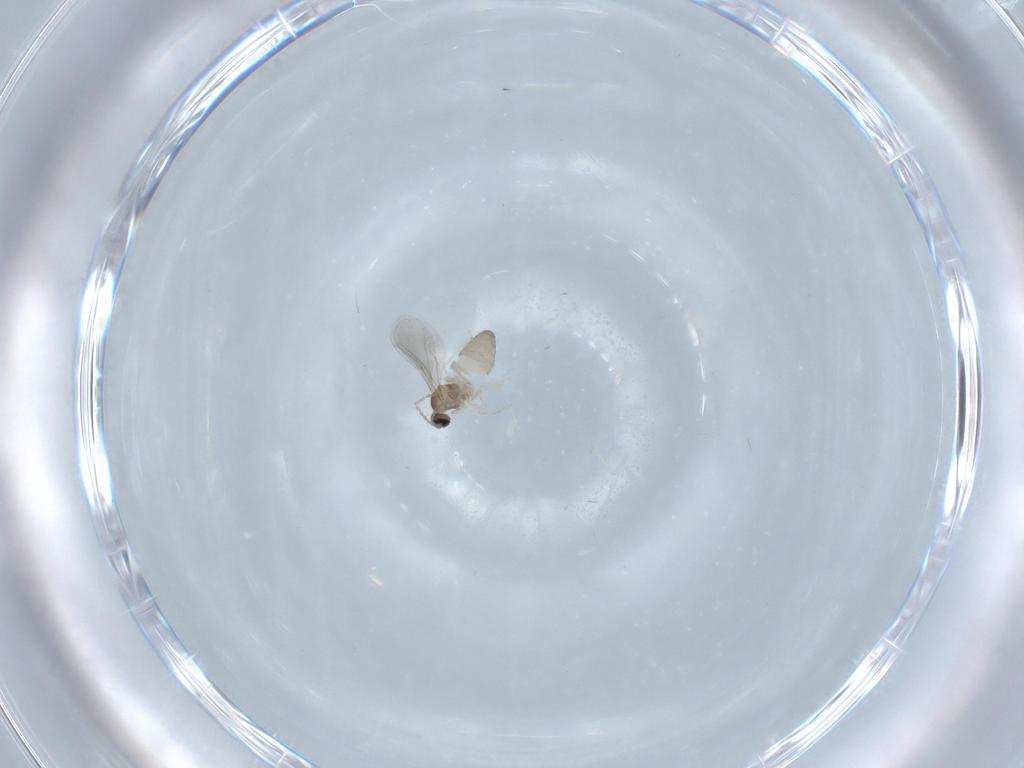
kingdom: Animalia
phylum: Arthropoda
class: Insecta
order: Diptera
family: Cecidomyiidae
